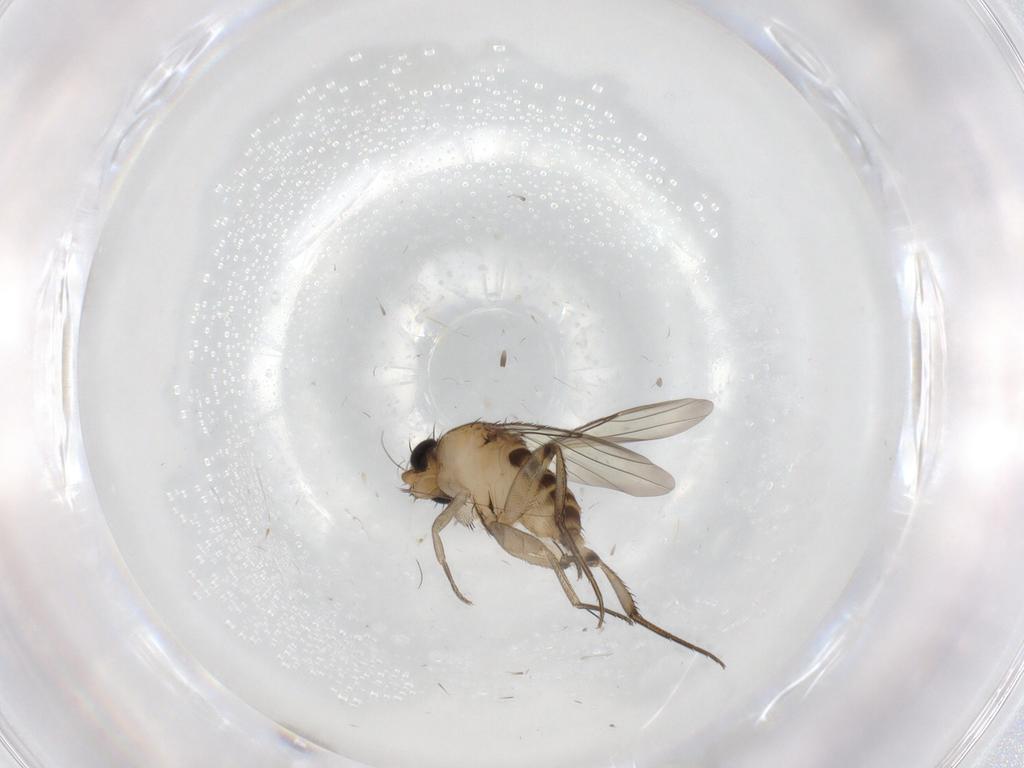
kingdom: Animalia
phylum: Arthropoda
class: Insecta
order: Diptera
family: Phoridae
